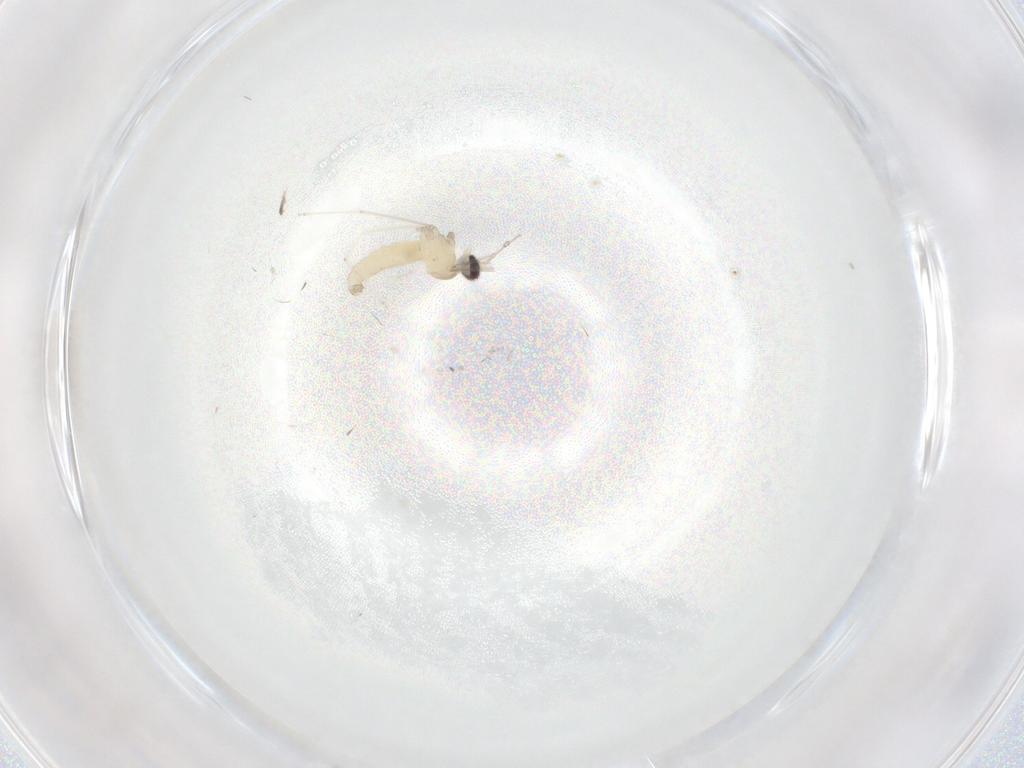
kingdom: Animalia
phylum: Arthropoda
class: Insecta
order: Diptera
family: Cecidomyiidae
